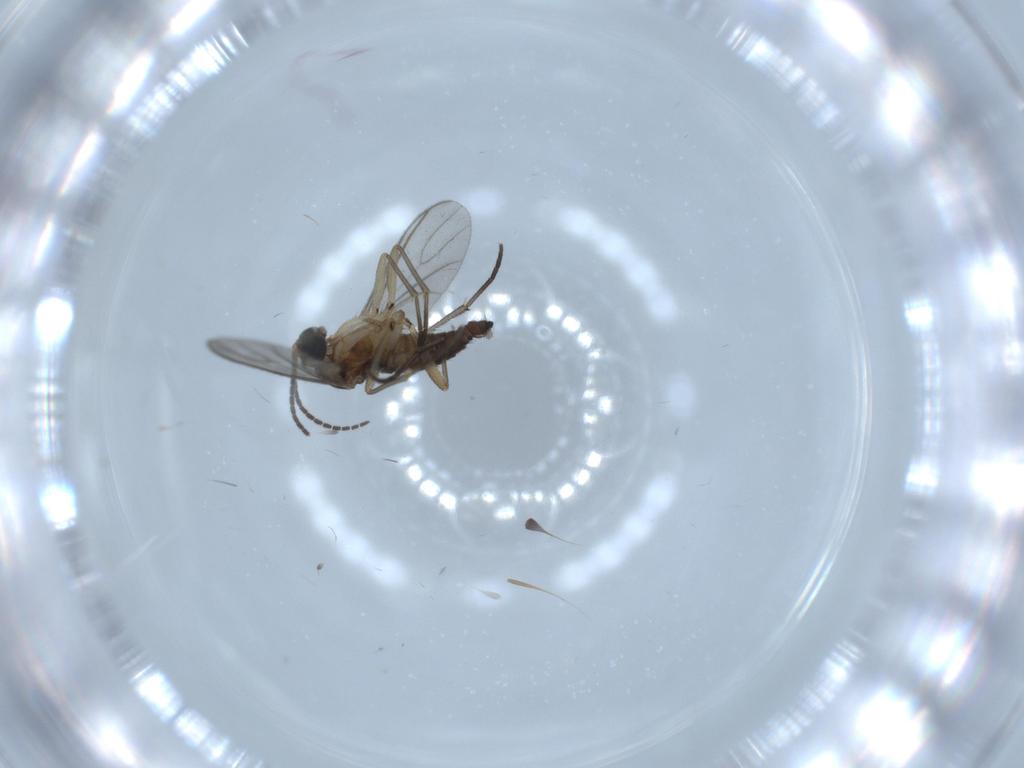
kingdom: Animalia
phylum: Arthropoda
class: Insecta
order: Diptera
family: Sciaridae
